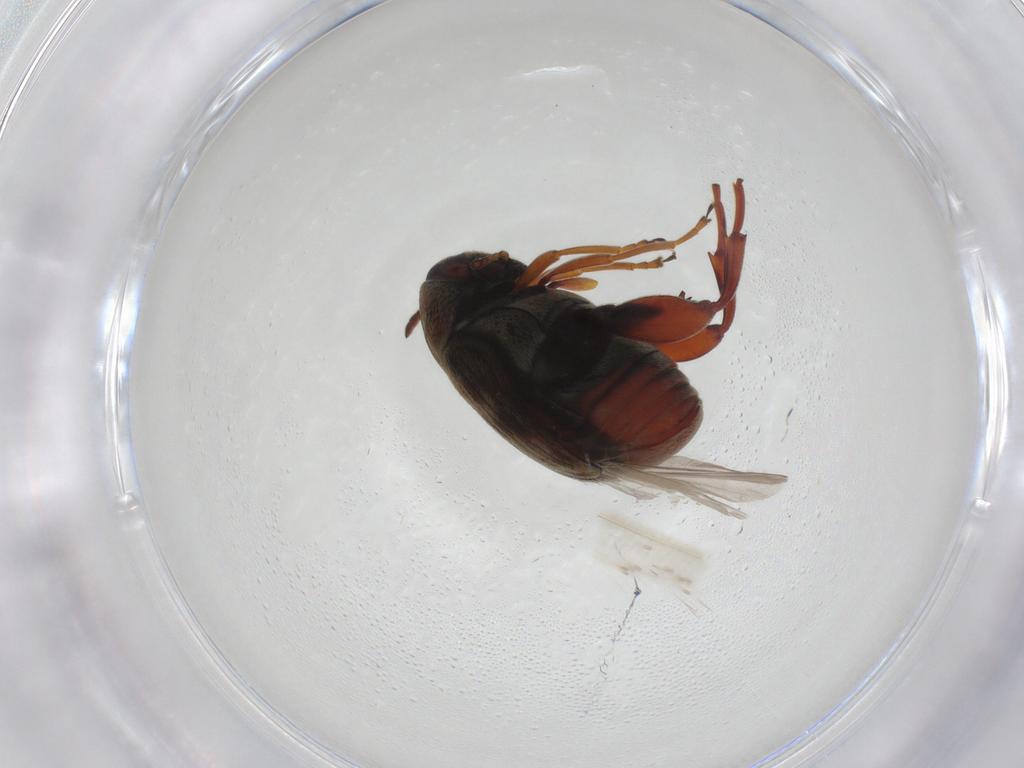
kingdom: Animalia
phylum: Arthropoda
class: Insecta
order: Coleoptera
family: Chrysomelidae
